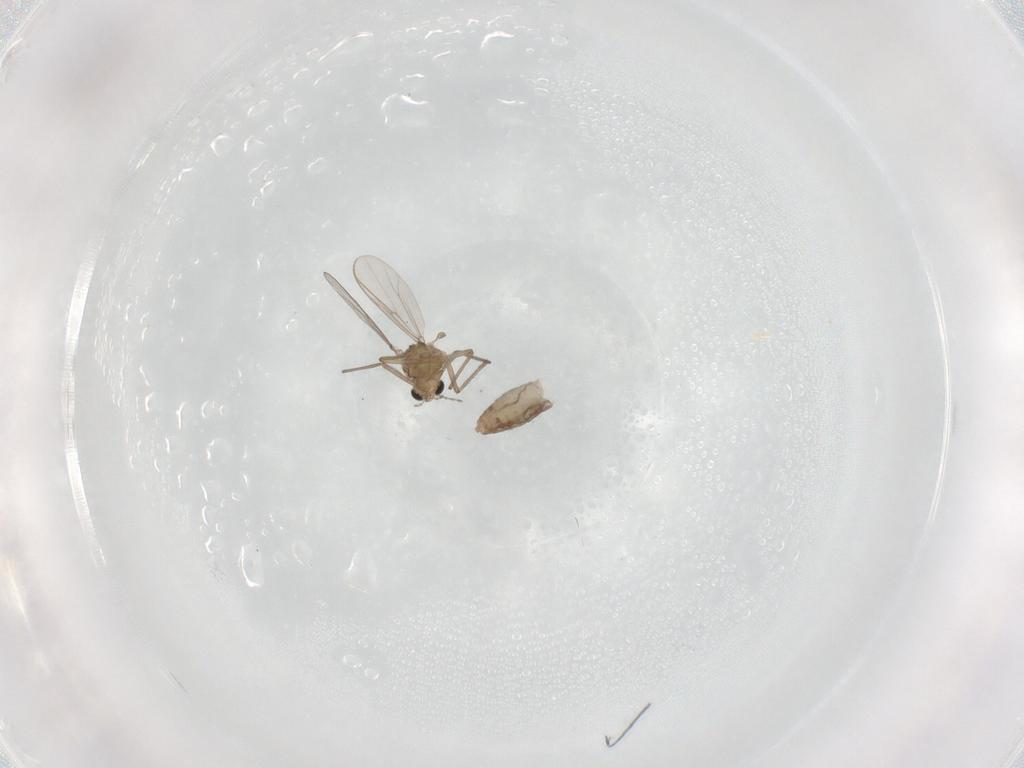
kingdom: Animalia
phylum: Arthropoda
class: Insecta
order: Diptera
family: Chironomidae
